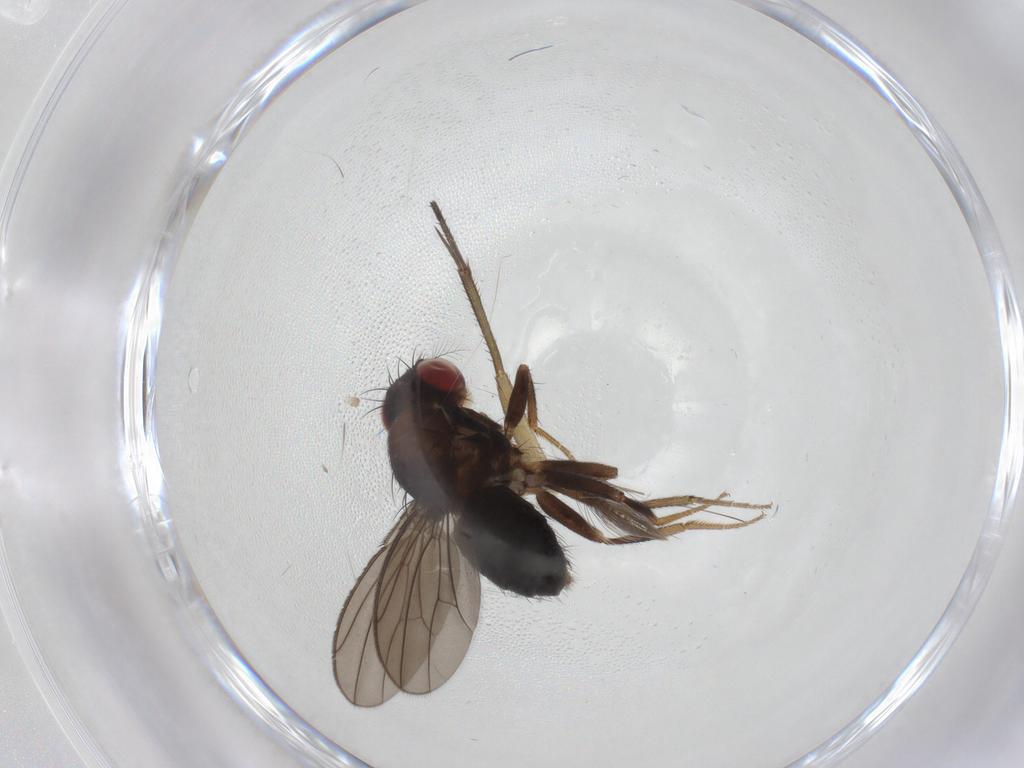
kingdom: Animalia
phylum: Arthropoda
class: Insecta
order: Diptera
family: Drosophilidae
